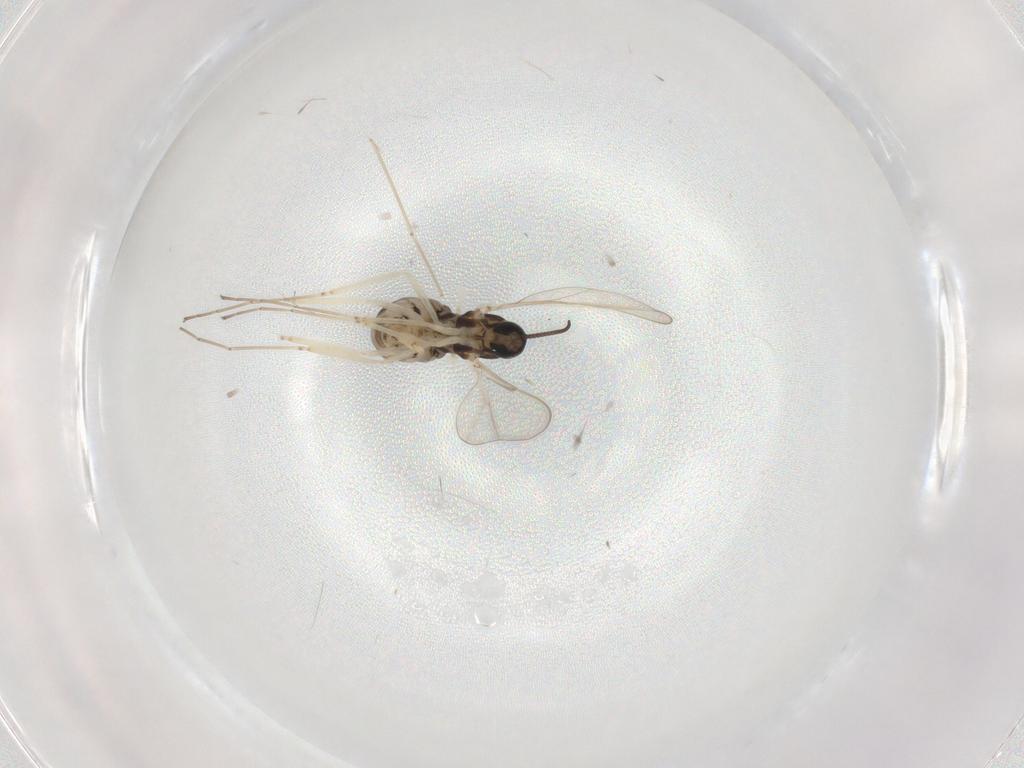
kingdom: Animalia
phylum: Arthropoda
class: Insecta
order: Diptera
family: Cecidomyiidae
